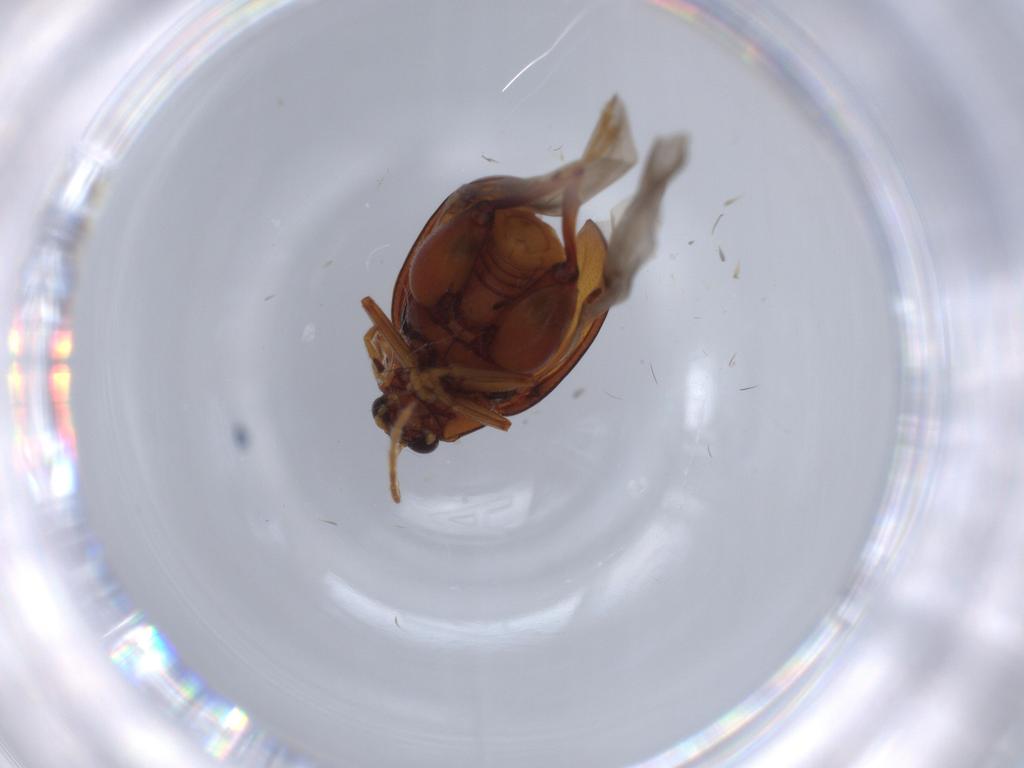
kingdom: Animalia
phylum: Arthropoda
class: Insecta
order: Coleoptera
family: Chrysomelidae
